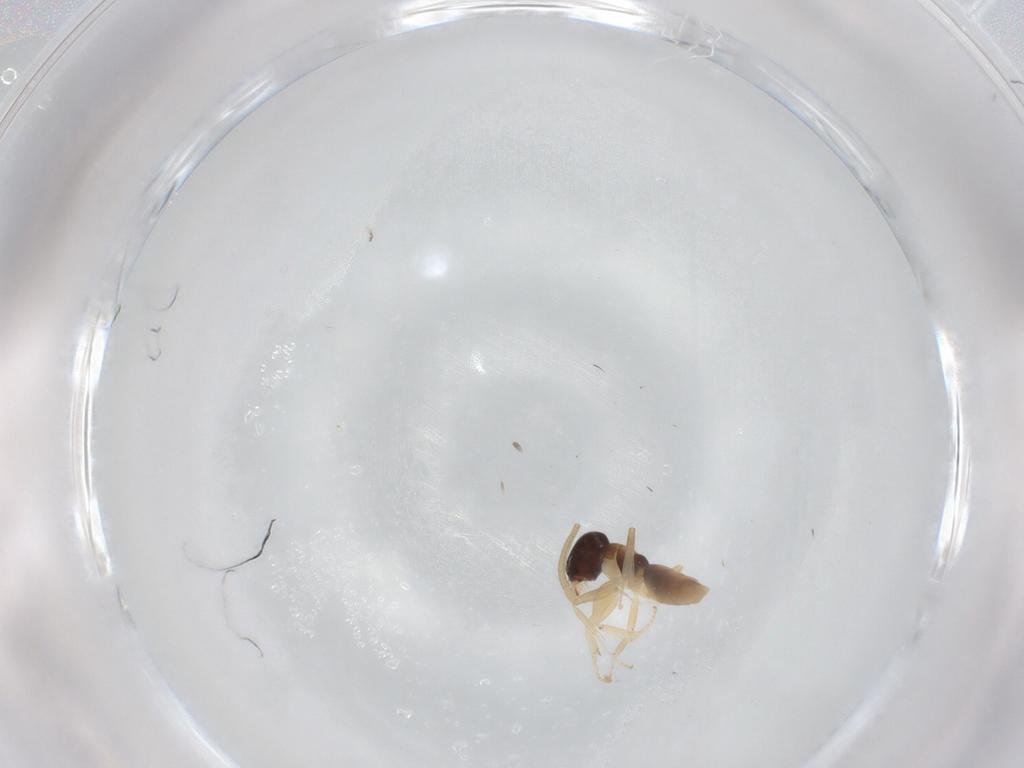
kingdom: Animalia
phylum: Arthropoda
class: Insecta
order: Hymenoptera
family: Formicidae
